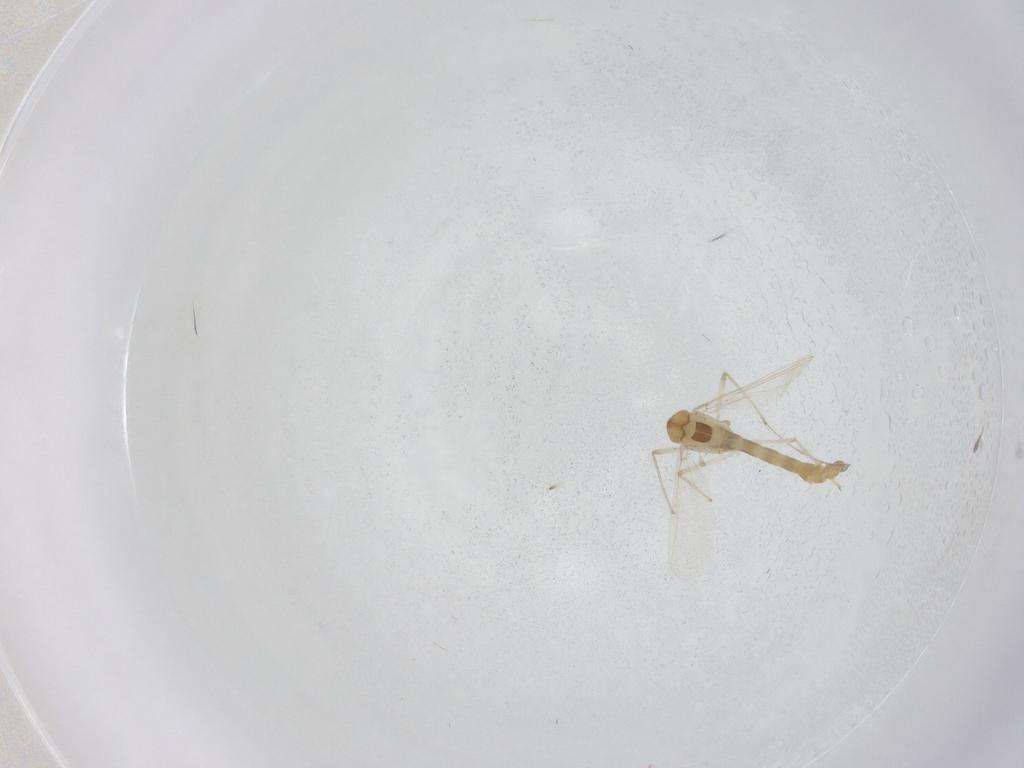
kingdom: Animalia
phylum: Arthropoda
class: Insecta
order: Diptera
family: Chironomidae
